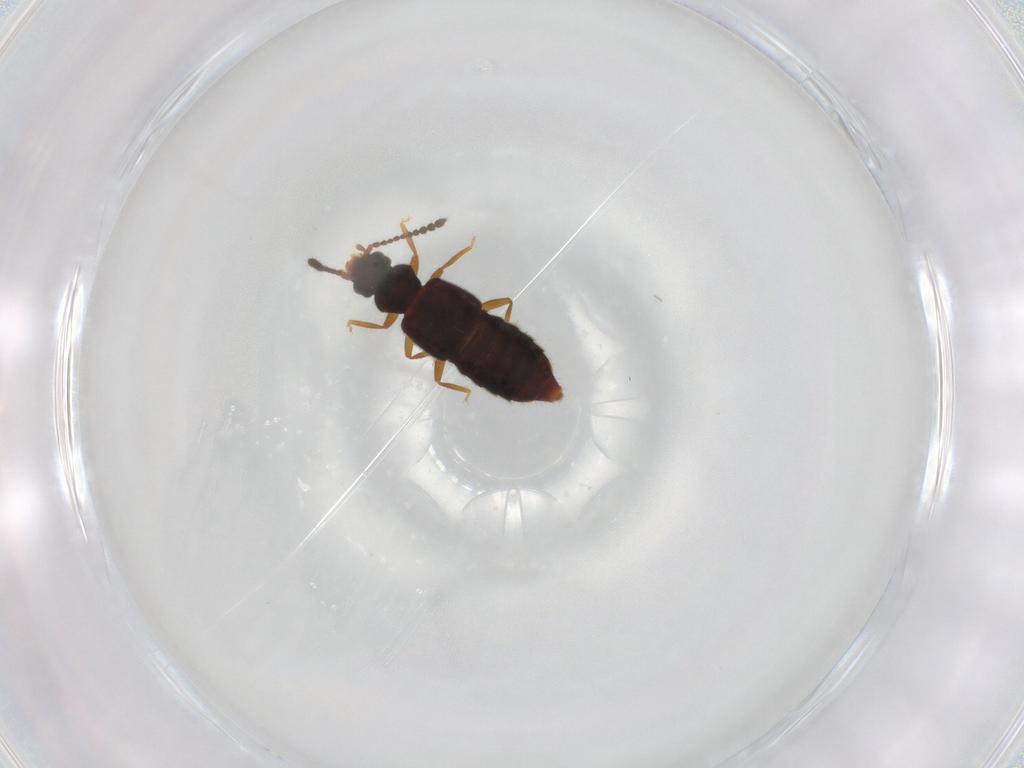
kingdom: Animalia
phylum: Arthropoda
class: Insecta
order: Coleoptera
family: Staphylinidae
